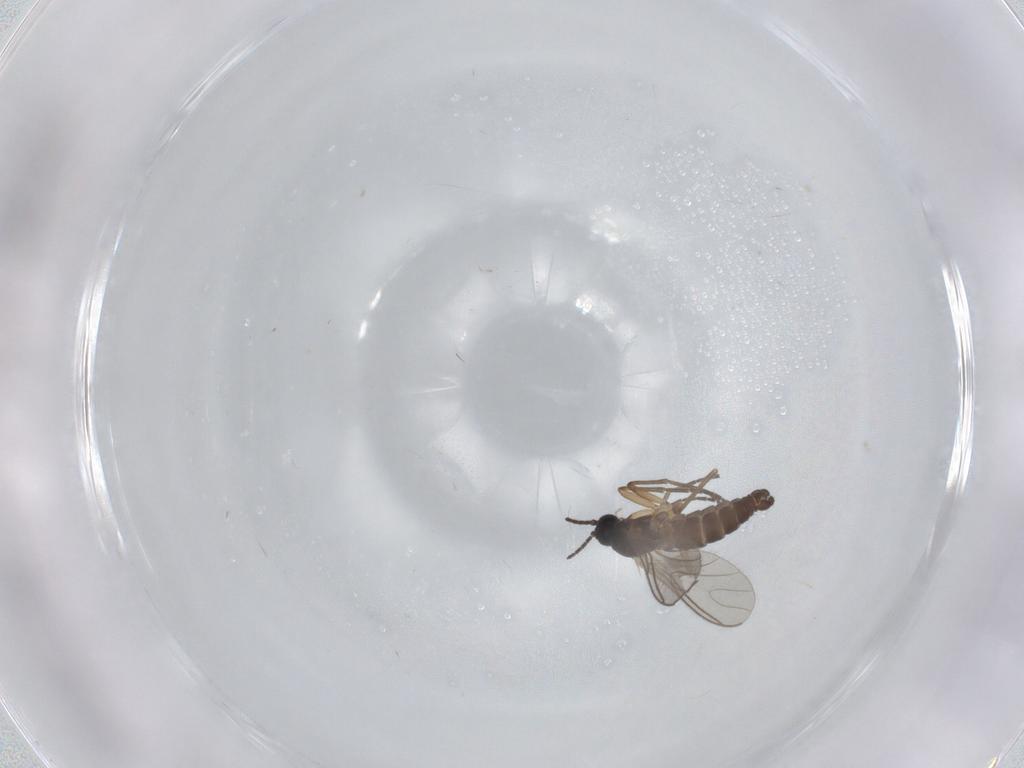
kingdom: Animalia
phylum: Arthropoda
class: Insecta
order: Diptera
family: Sciaridae
